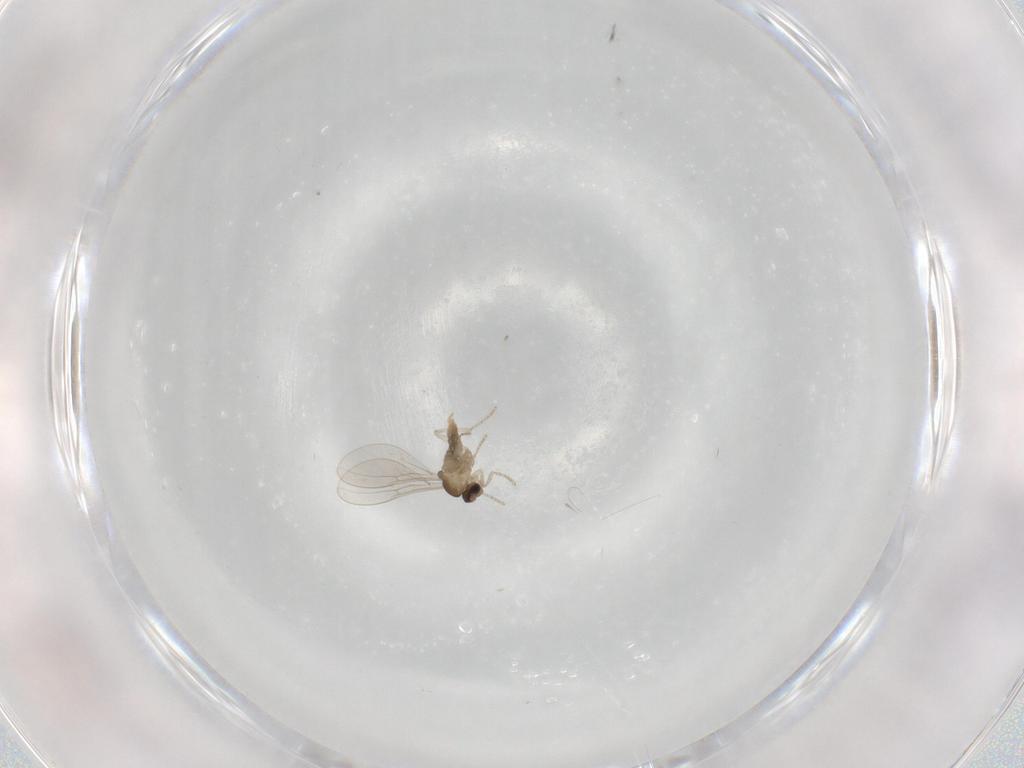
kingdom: Animalia
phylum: Arthropoda
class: Insecta
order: Diptera
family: Cecidomyiidae
